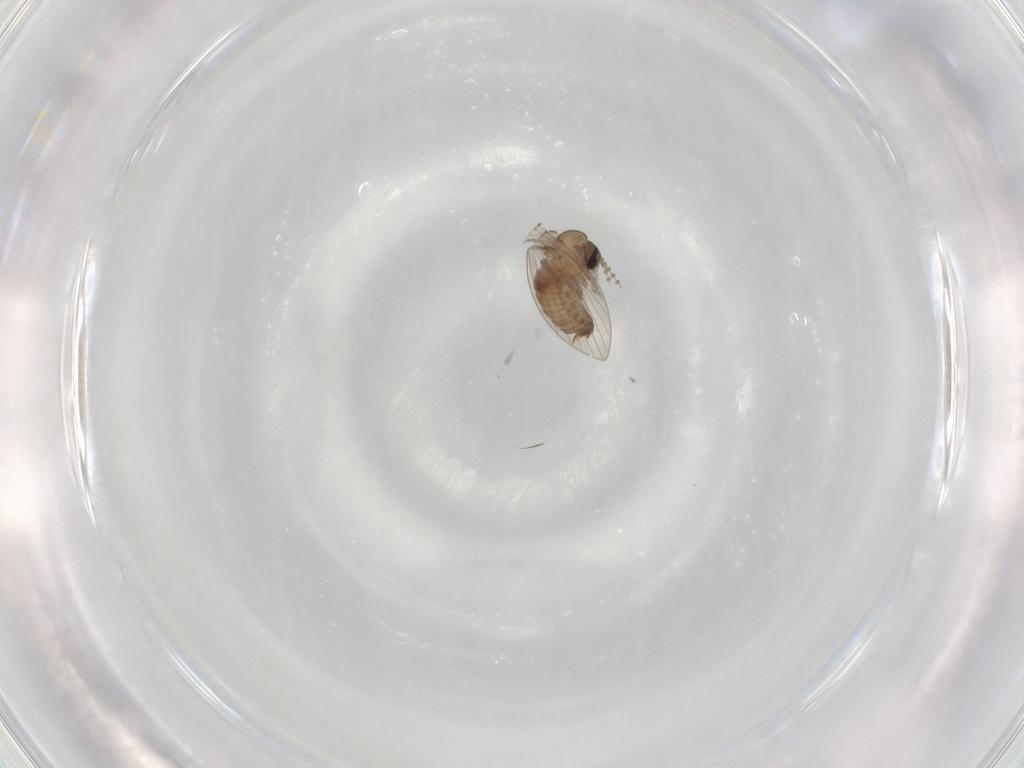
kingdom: Animalia
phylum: Arthropoda
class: Insecta
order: Diptera
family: Psychodidae
